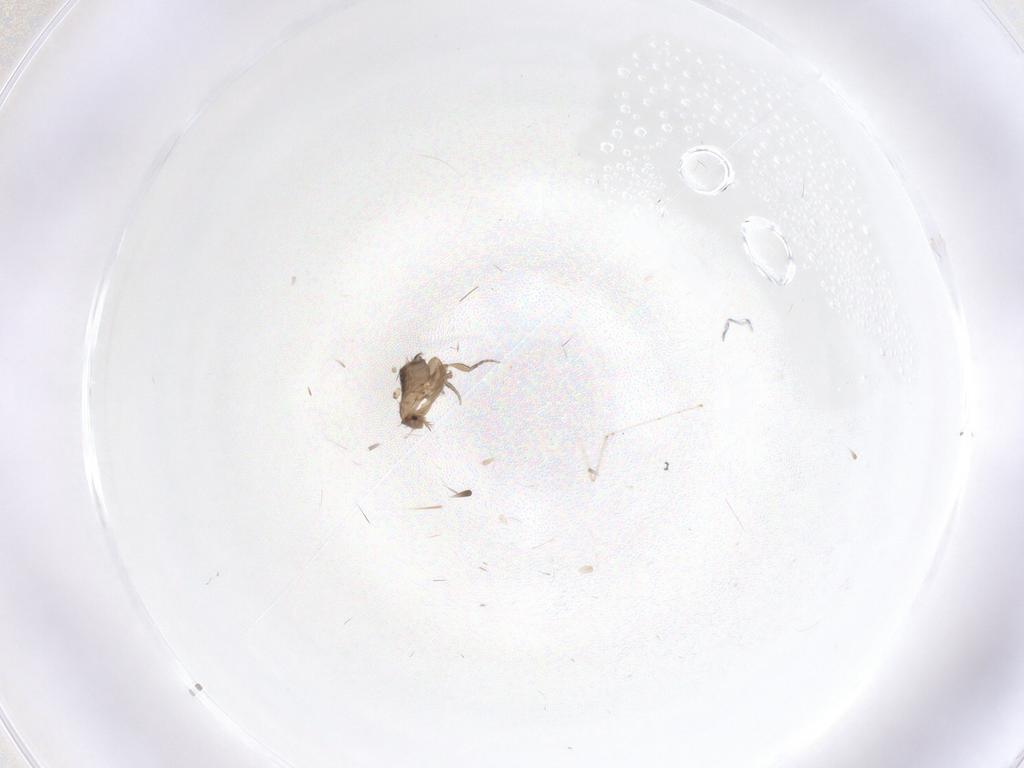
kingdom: Animalia
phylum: Arthropoda
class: Insecta
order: Diptera
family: Phoridae
